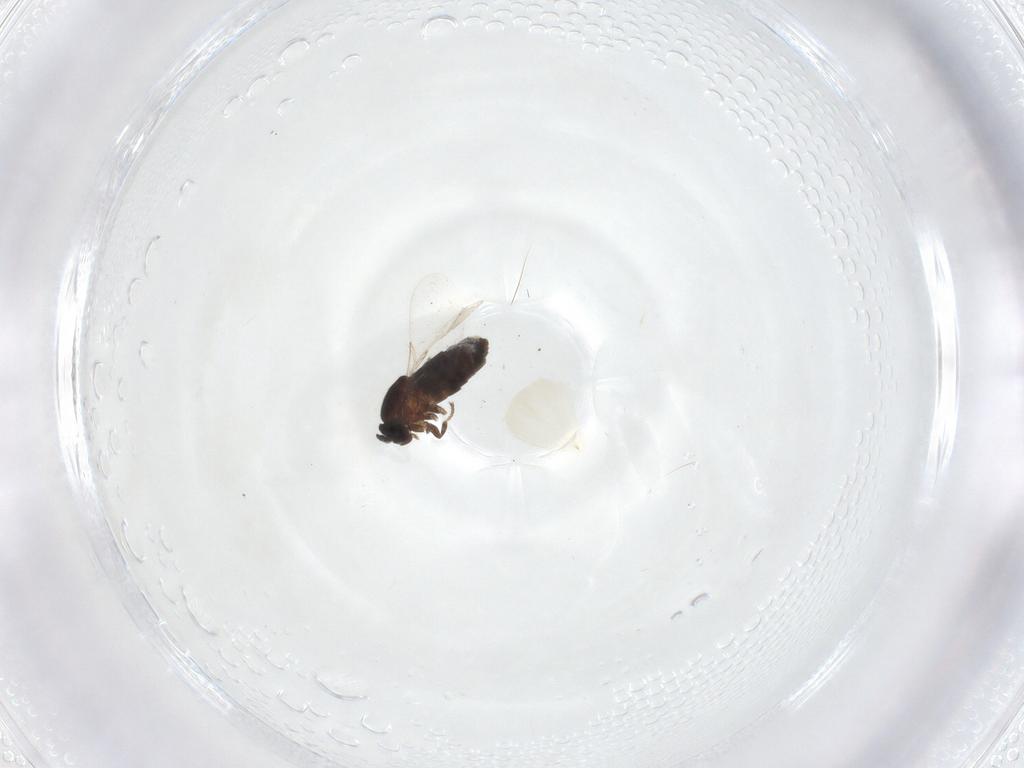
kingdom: Animalia
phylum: Arthropoda
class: Insecta
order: Diptera
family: Scatopsidae
